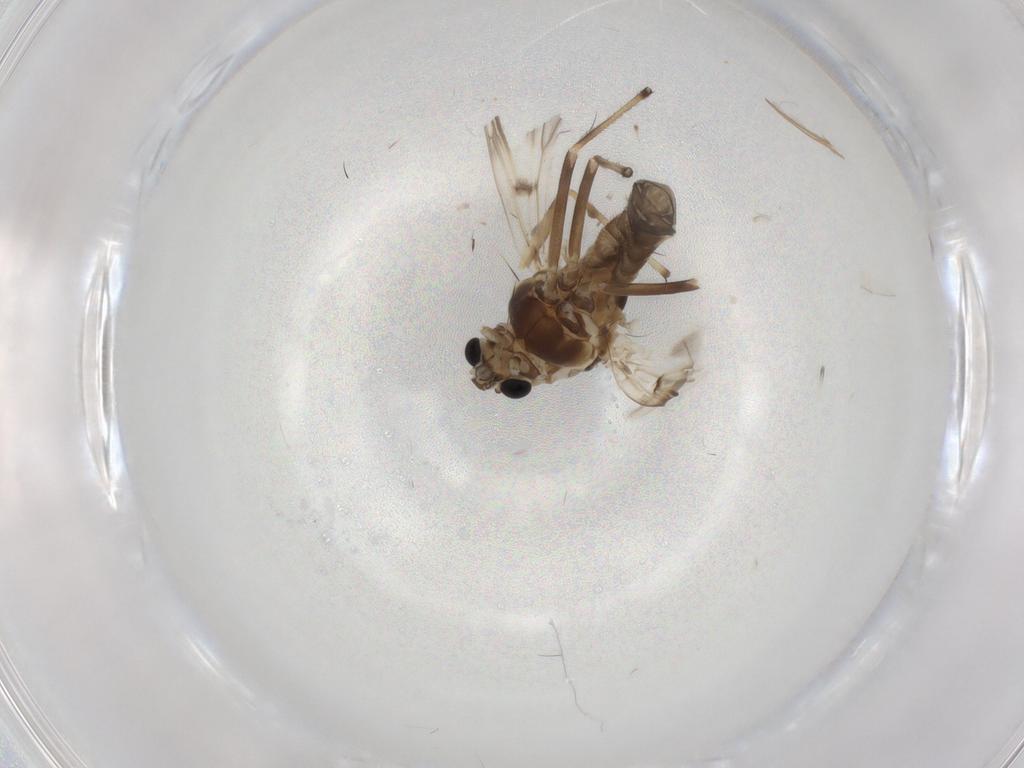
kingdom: Animalia
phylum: Arthropoda
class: Insecta
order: Diptera
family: Chironomidae
